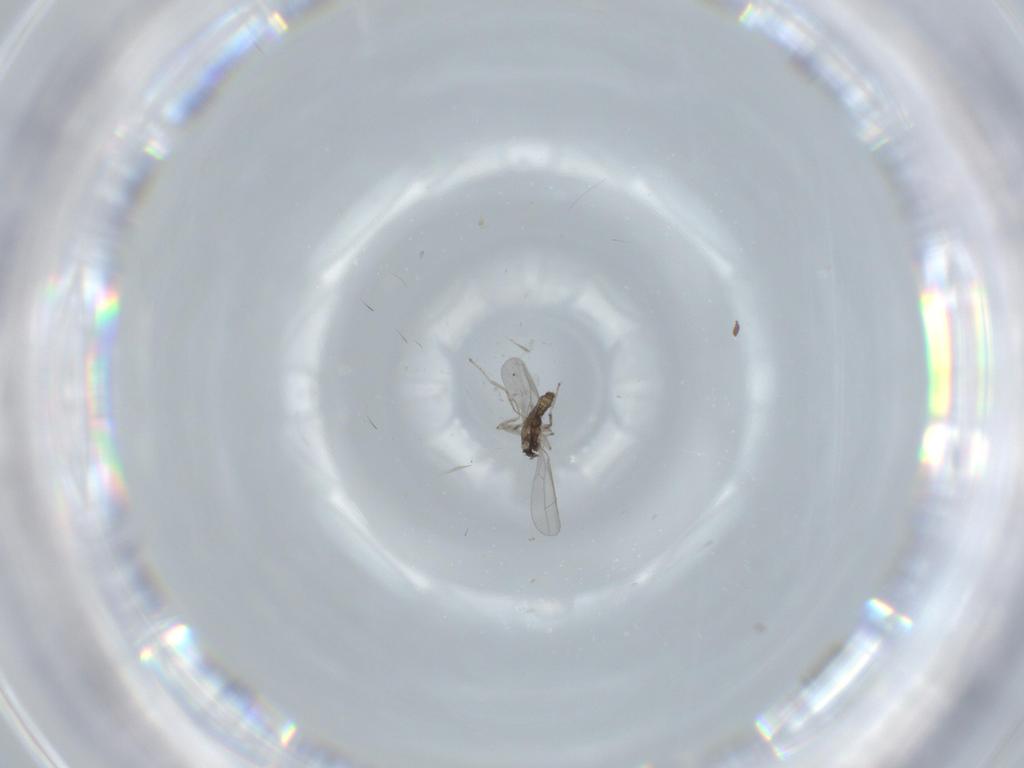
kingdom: Animalia
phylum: Arthropoda
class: Insecta
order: Diptera
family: Cecidomyiidae
